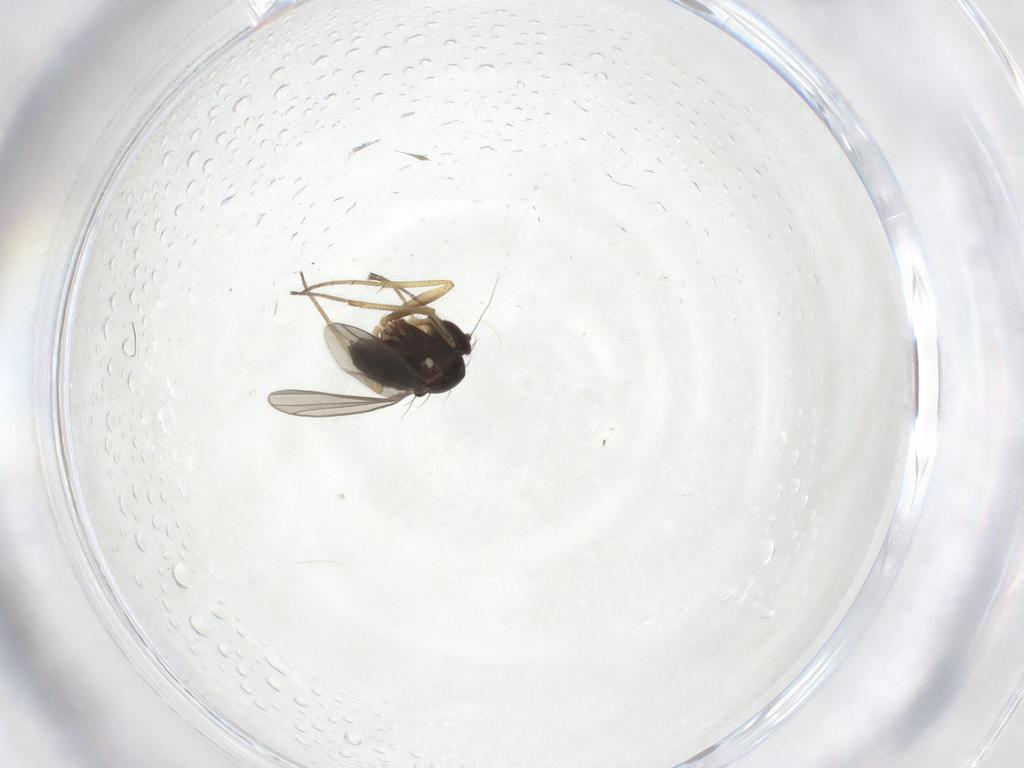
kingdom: Animalia
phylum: Arthropoda
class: Insecta
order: Diptera
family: Dolichopodidae
